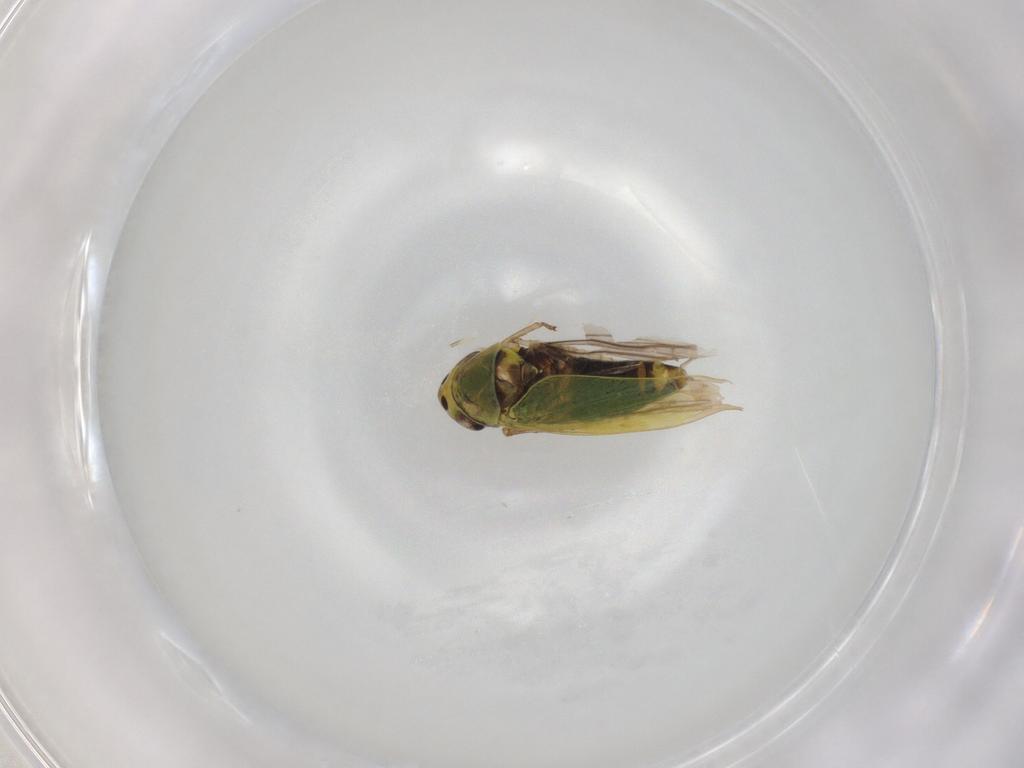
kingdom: Animalia
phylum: Arthropoda
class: Insecta
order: Hemiptera
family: Cicadellidae
